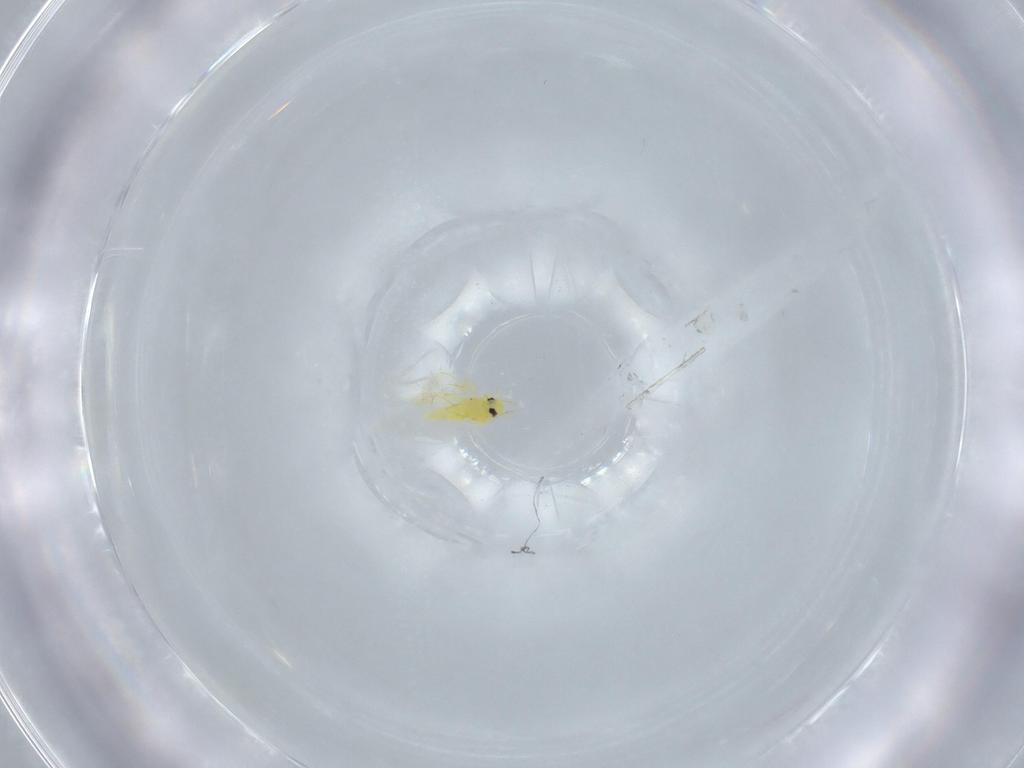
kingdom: Animalia
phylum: Arthropoda
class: Insecta
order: Hemiptera
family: Aleyrodidae
